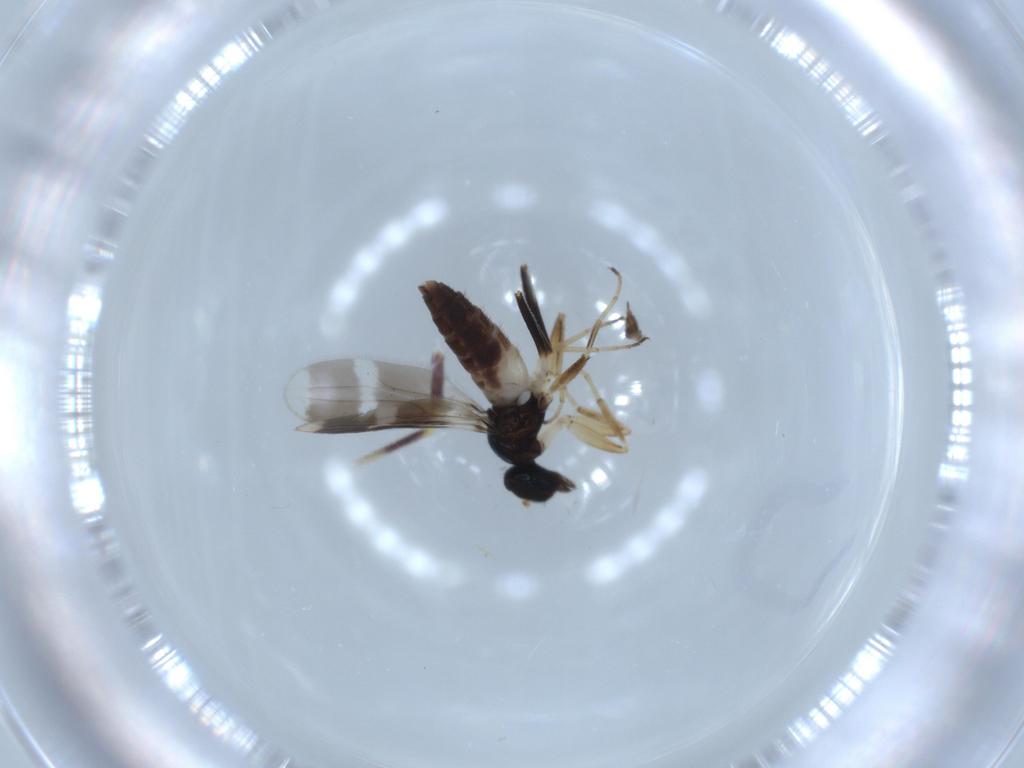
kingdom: Animalia
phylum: Arthropoda
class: Insecta
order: Diptera
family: Hybotidae
